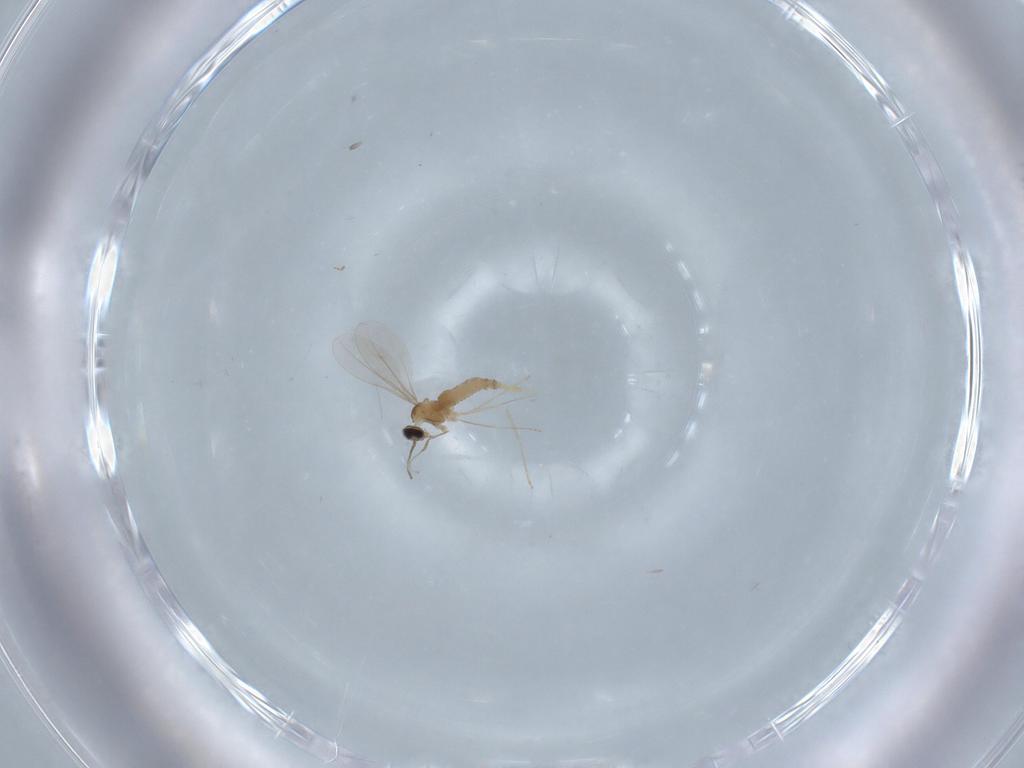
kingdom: Animalia
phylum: Arthropoda
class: Insecta
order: Diptera
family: Cecidomyiidae
